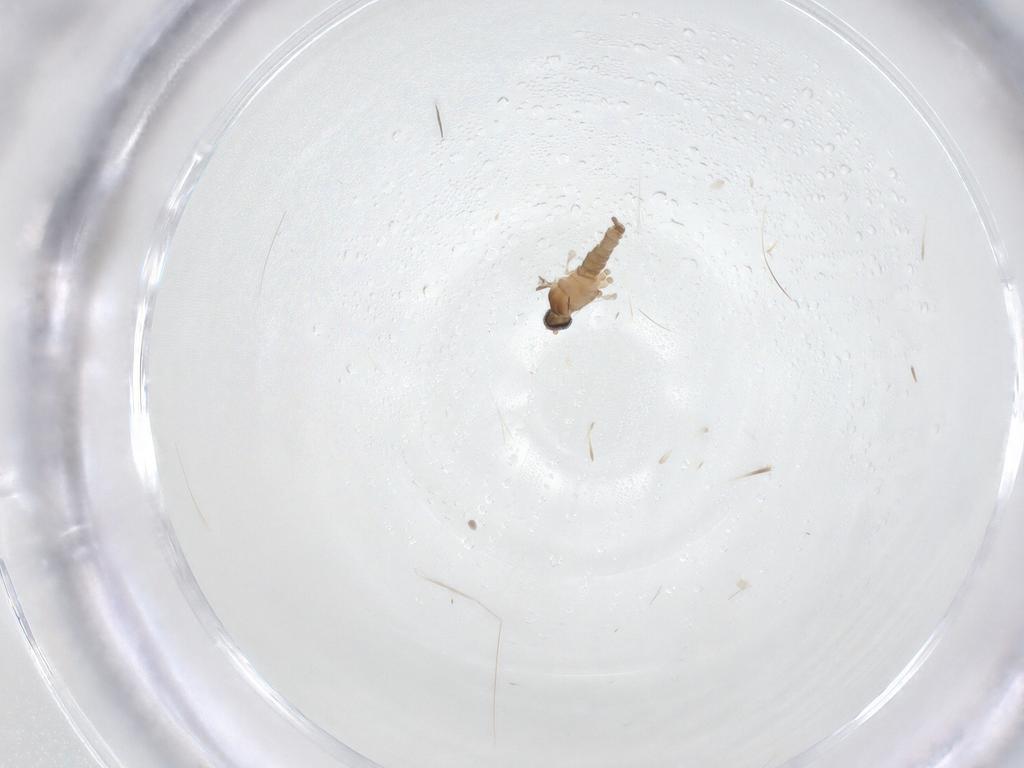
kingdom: Animalia
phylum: Arthropoda
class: Insecta
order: Diptera
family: Cecidomyiidae
